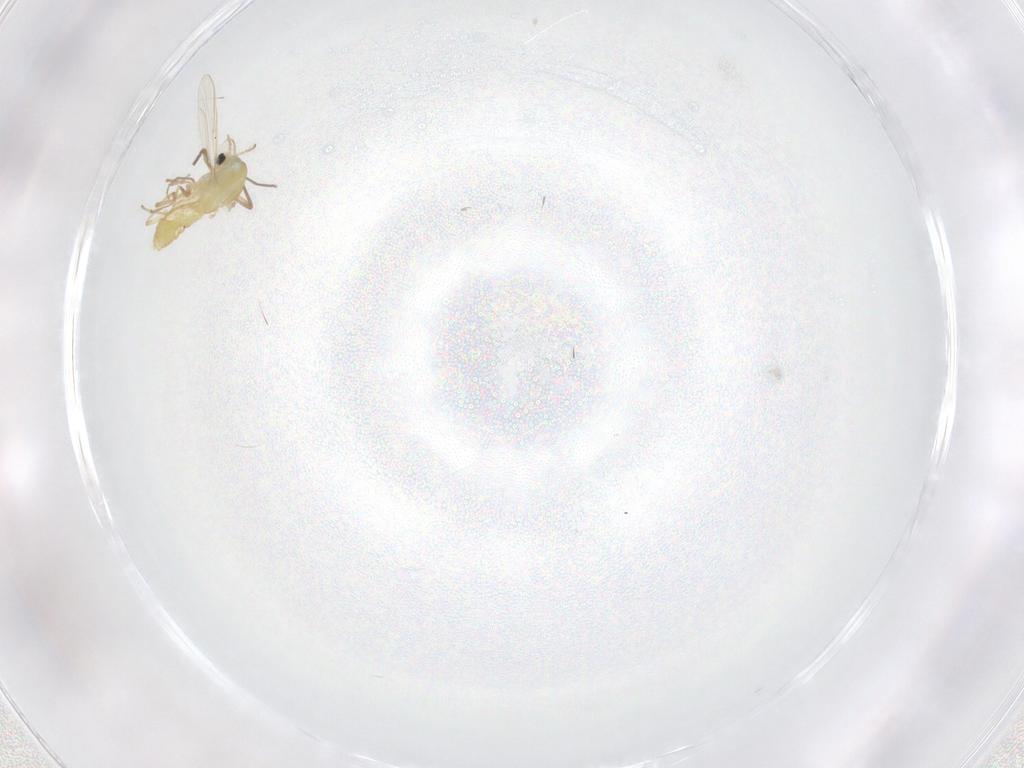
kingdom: Animalia
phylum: Arthropoda
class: Insecta
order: Diptera
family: Chironomidae
